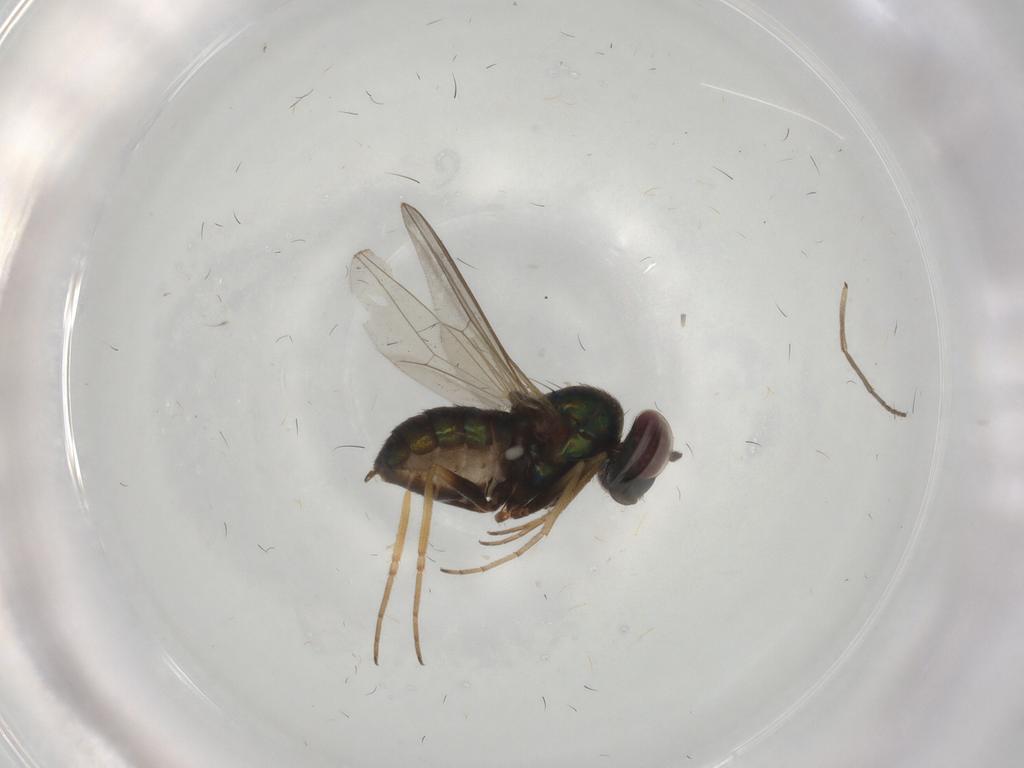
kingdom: Animalia
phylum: Arthropoda
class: Insecta
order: Diptera
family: Dolichopodidae
